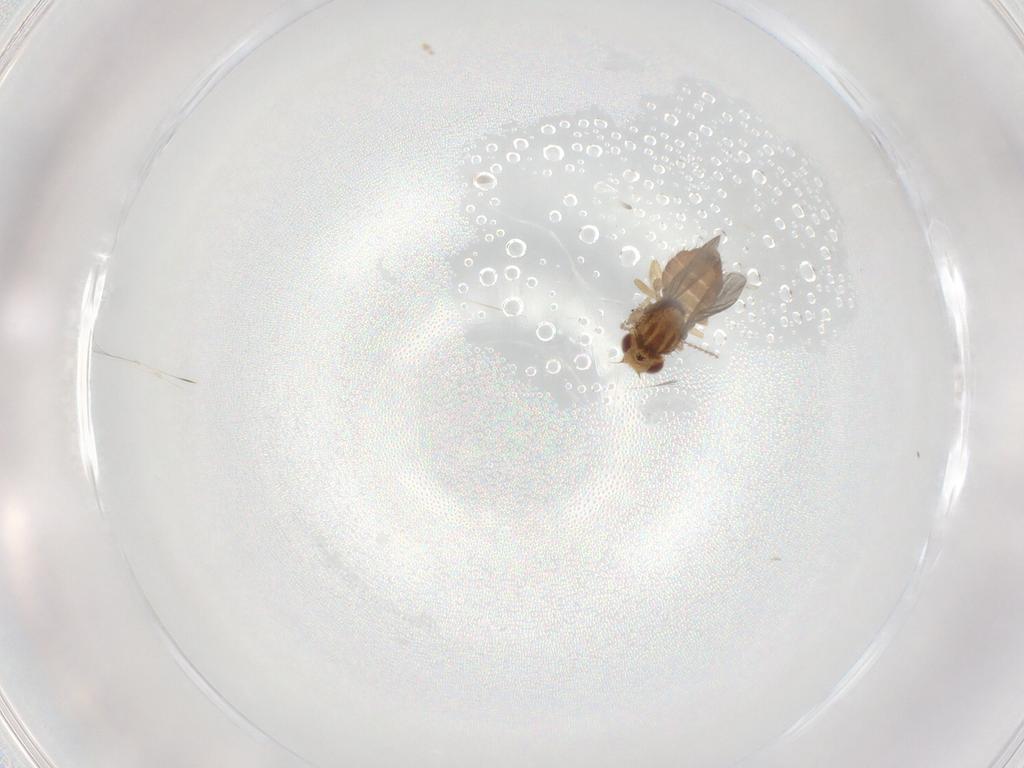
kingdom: Animalia
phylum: Arthropoda
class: Insecta
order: Diptera
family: Chloropidae
